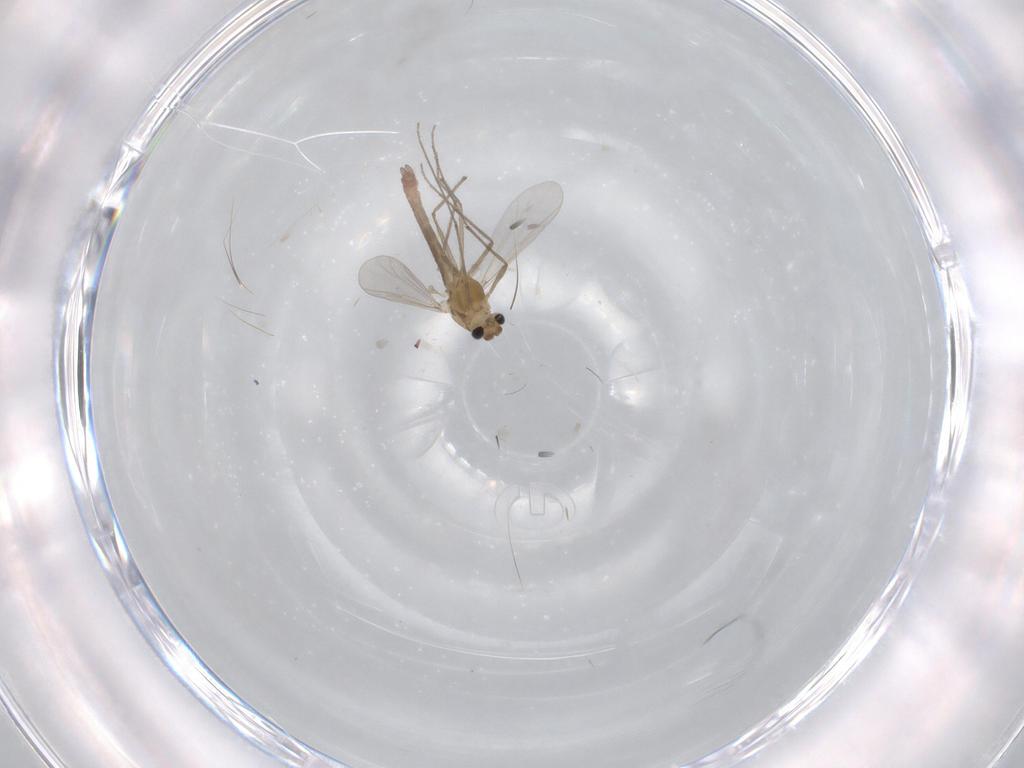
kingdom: Animalia
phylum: Arthropoda
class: Insecta
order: Diptera
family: Chironomidae
